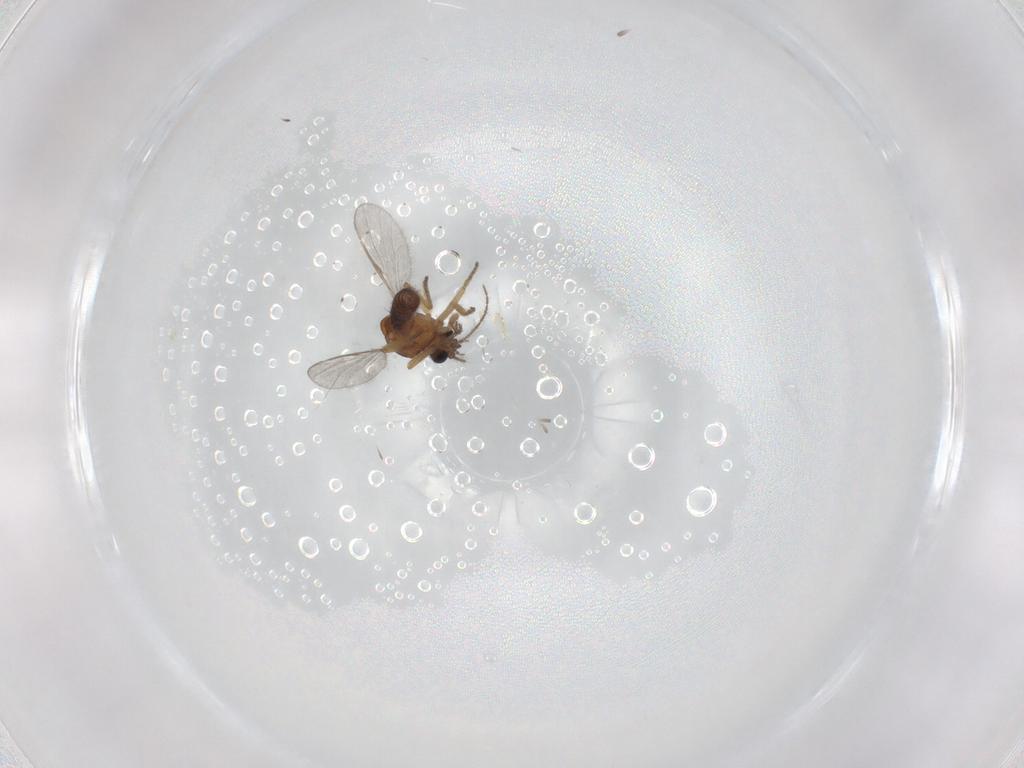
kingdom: Animalia
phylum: Arthropoda
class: Insecta
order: Diptera
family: Ceratopogonidae
